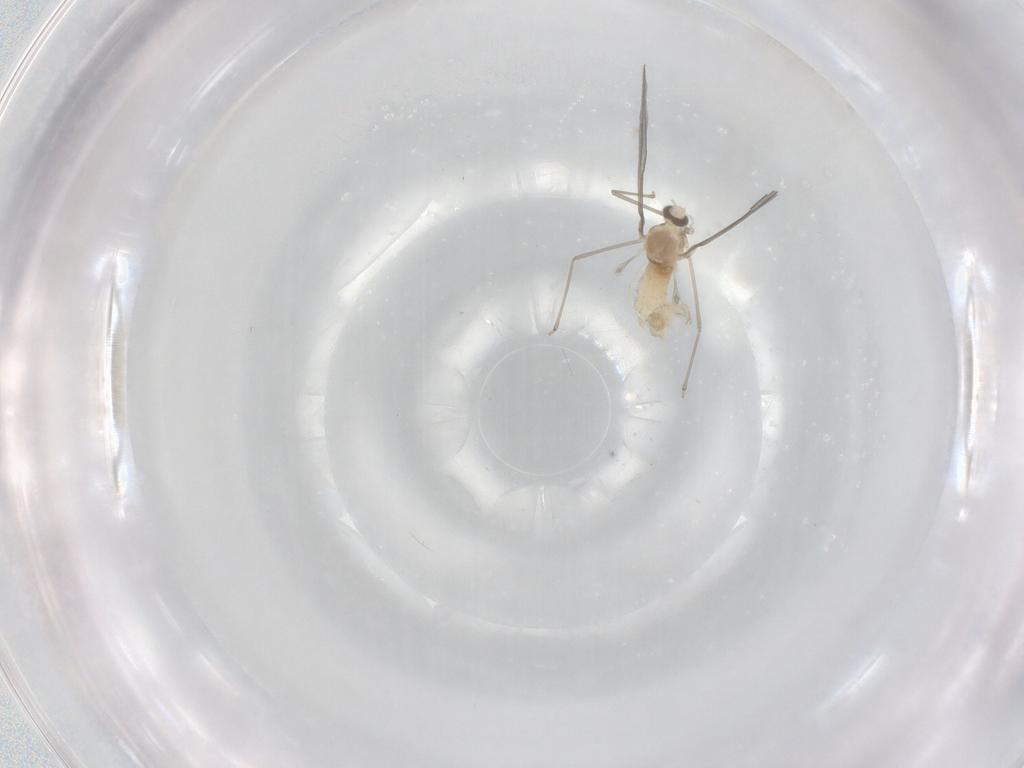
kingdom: Animalia
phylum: Arthropoda
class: Insecta
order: Diptera
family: Cecidomyiidae
